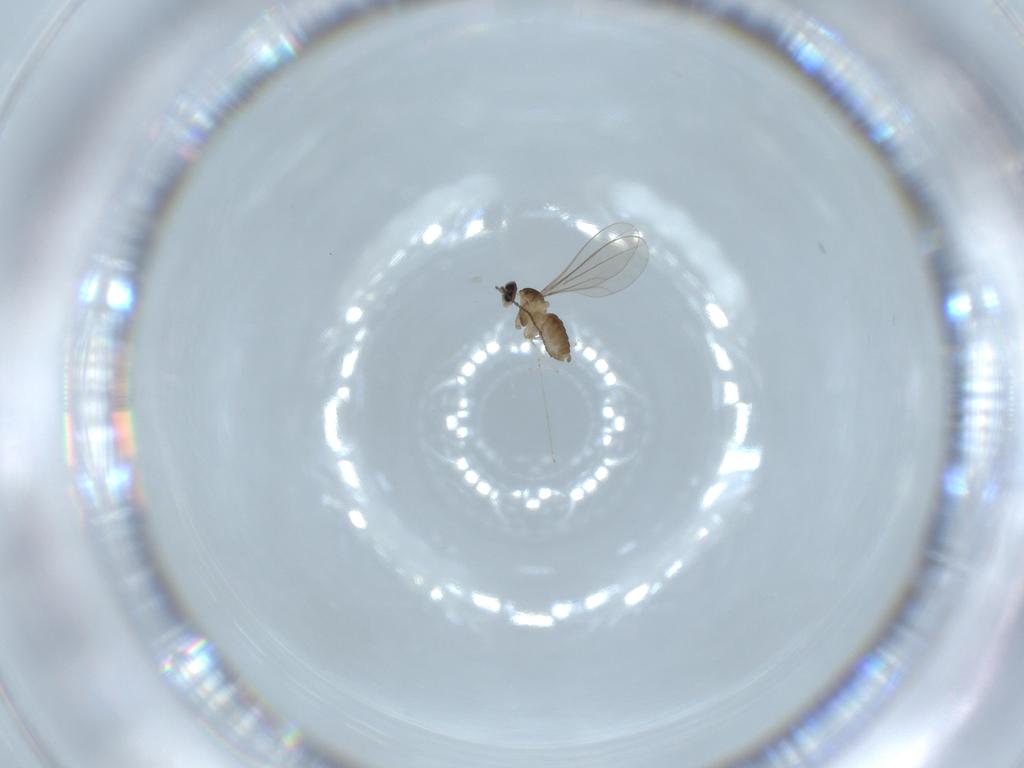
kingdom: Animalia
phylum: Arthropoda
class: Insecta
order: Diptera
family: Cecidomyiidae
